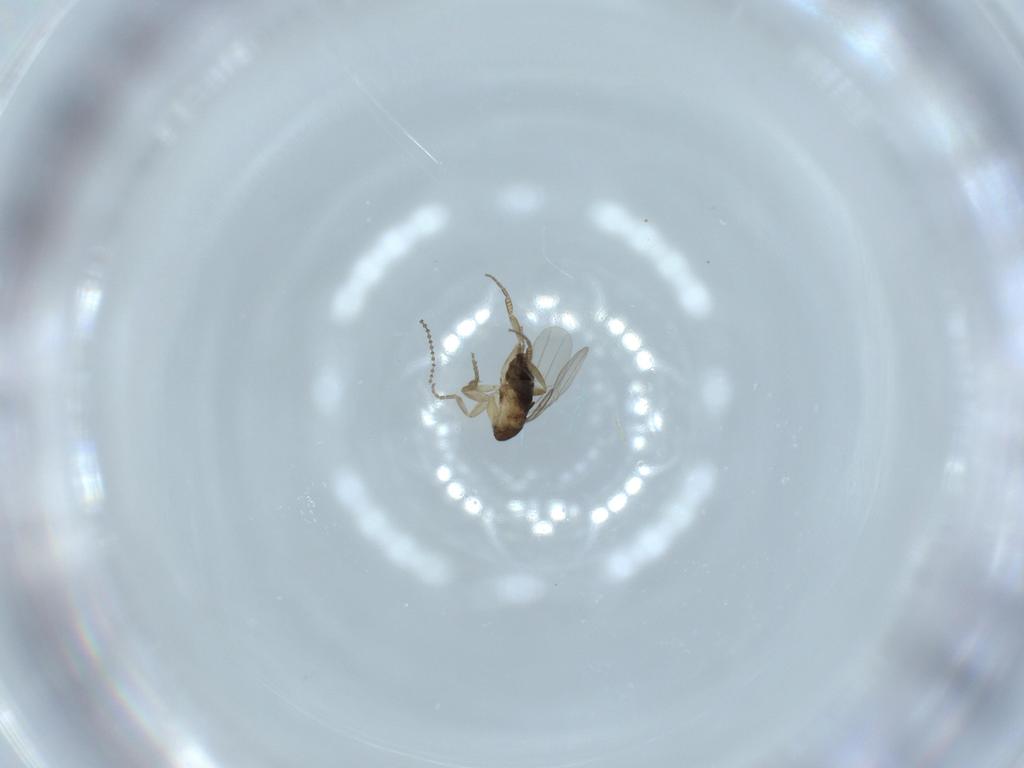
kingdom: Animalia
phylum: Arthropoda
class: Insecta
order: Diptera
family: Phoridae
